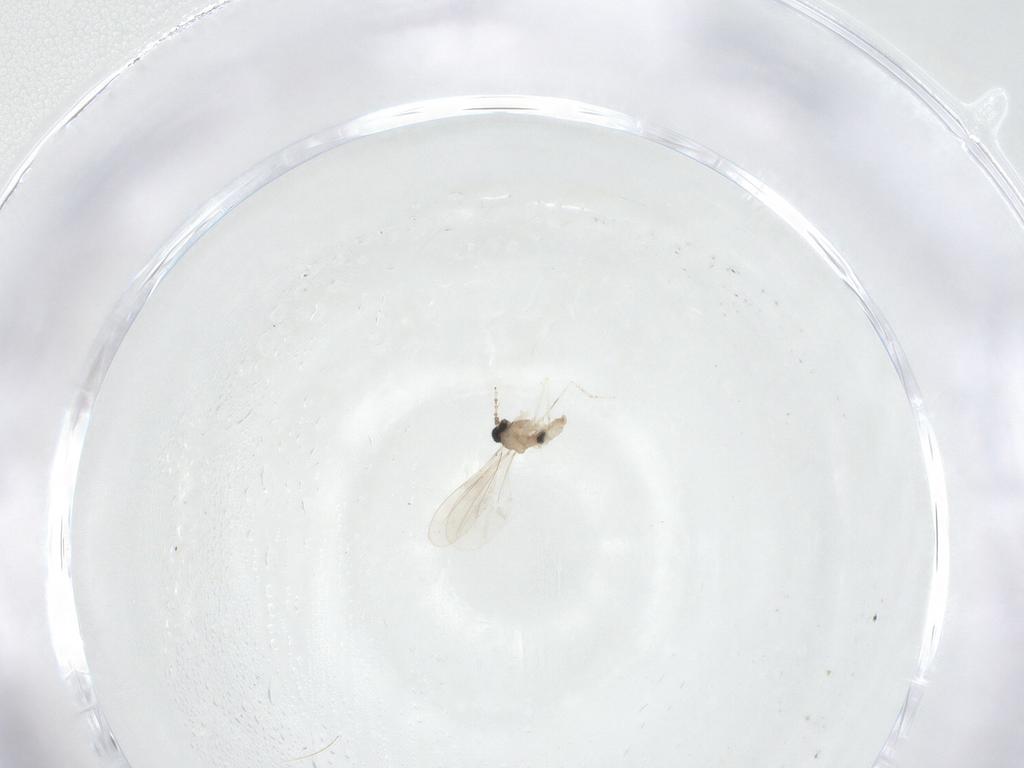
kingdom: Animalia
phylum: Arthropoda
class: Insecta
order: Diptera
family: Cecidomyiidae
